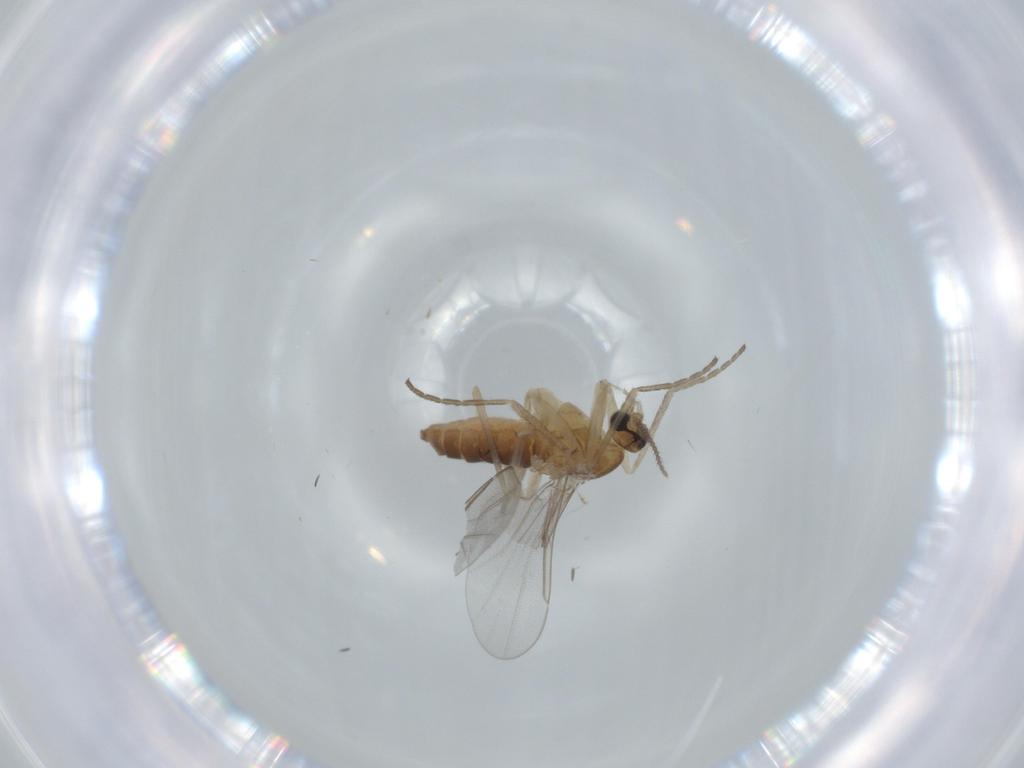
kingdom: Animalia
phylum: Arthropoda
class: Insecta
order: Diptera
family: Cecidomyiidae
